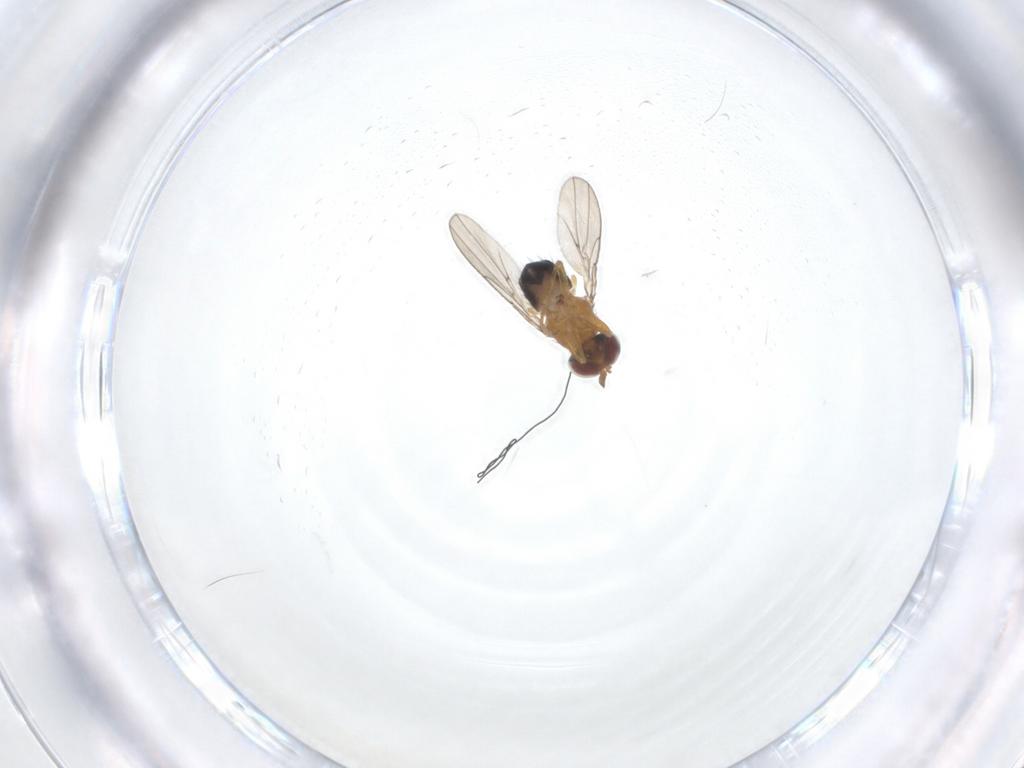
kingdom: Animalia
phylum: Arthropoda
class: Insecta
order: Diptera
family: Ephydridae
